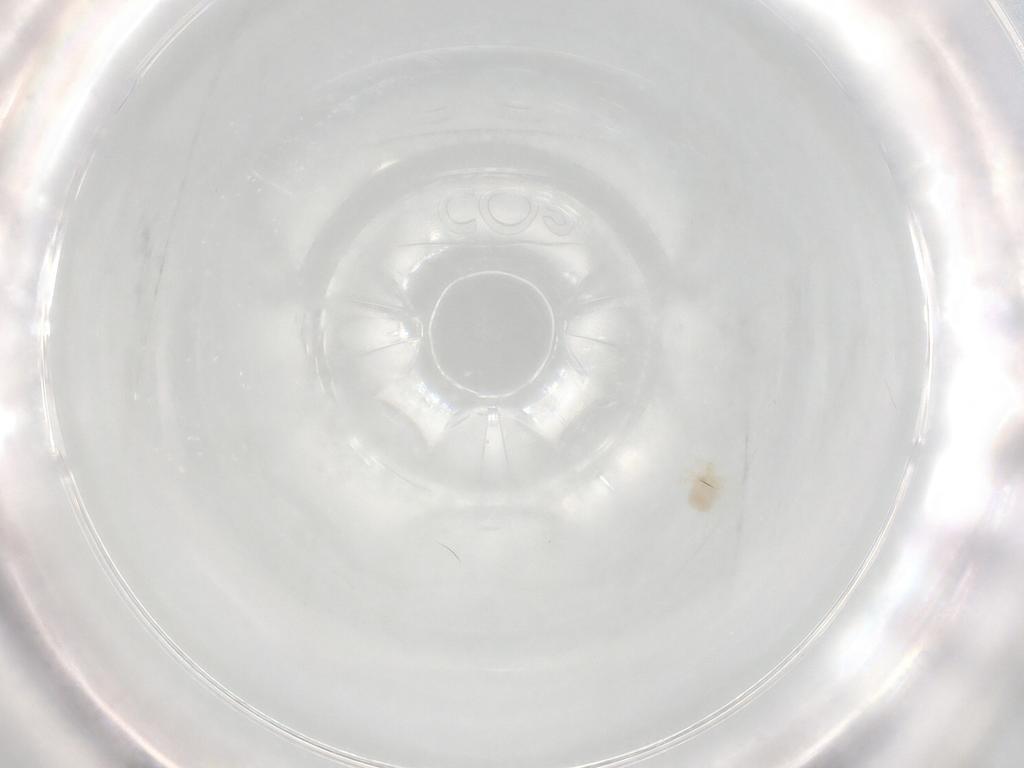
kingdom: Animalia
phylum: Arthropoda
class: Arachnida
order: Trombidiformes
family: Anystidae
